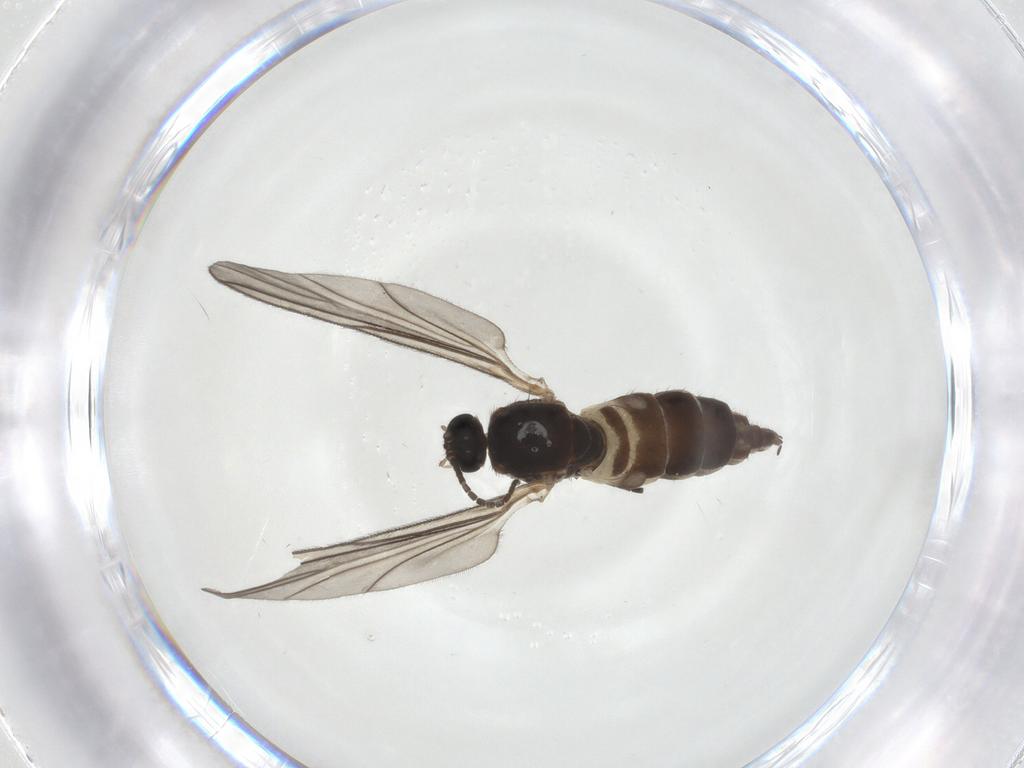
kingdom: Animalia
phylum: Arthropoda
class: Insecta
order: Diptera
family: Sciaridae
